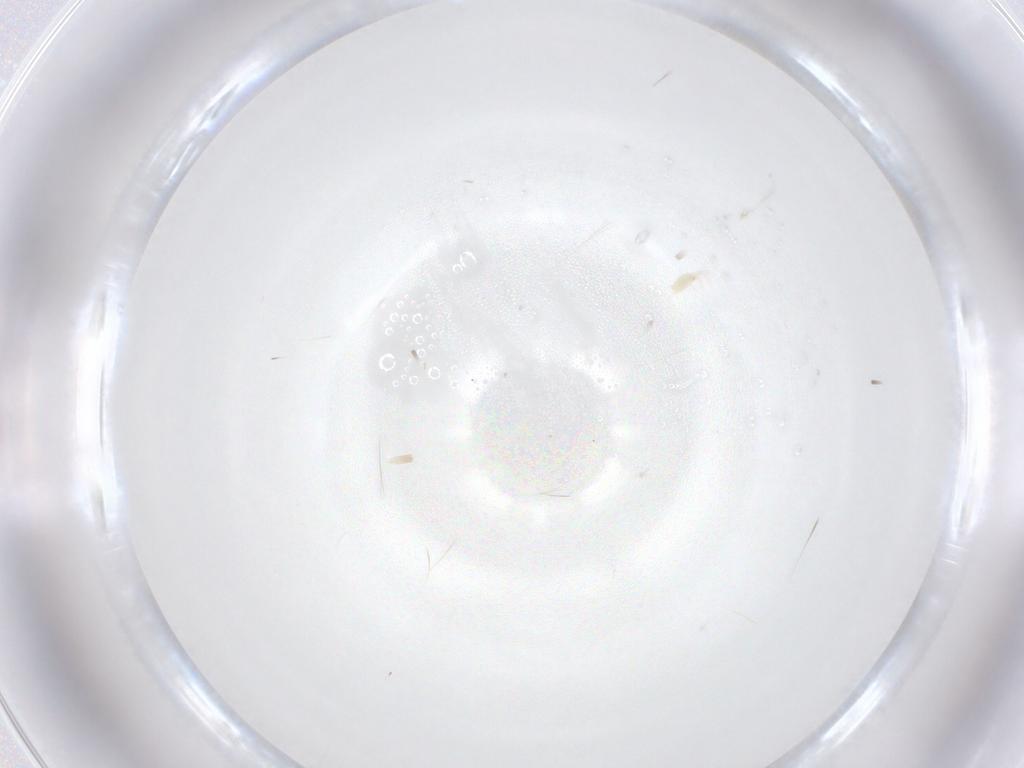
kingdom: Animalia
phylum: Arthropoda
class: Arachnida
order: Trombidiformes
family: Tetranychidae
